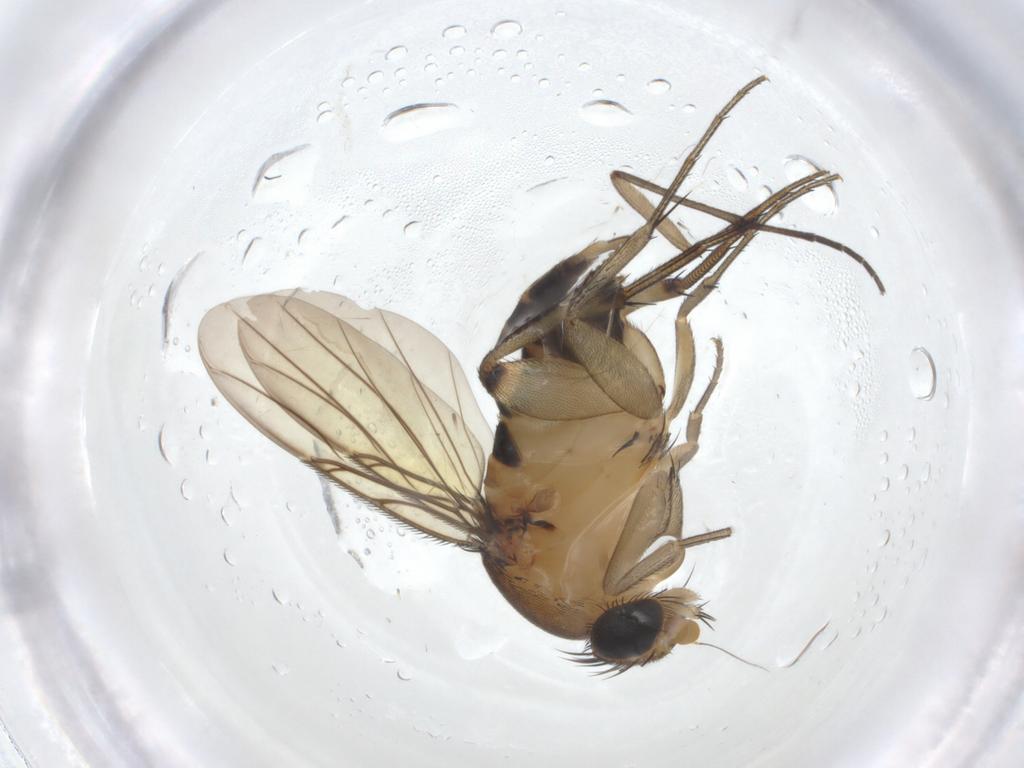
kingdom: Animalia
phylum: Arthropoda
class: Insecta
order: Diptera
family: Phoridae
